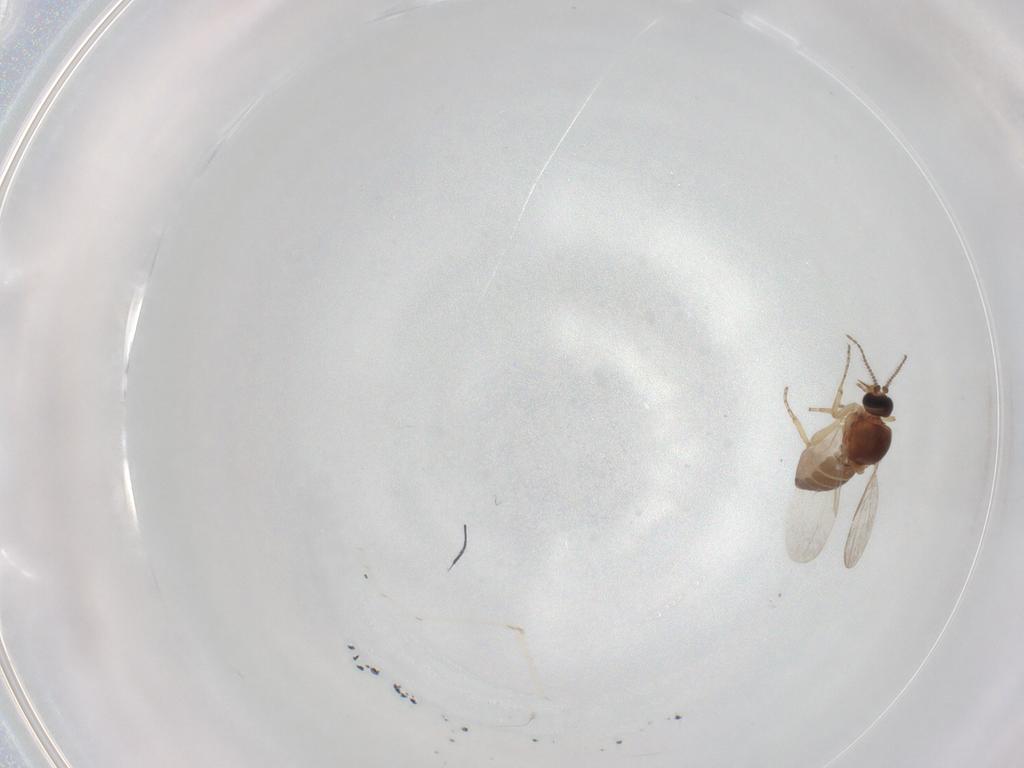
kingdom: Animalia
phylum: Arthropoda
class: Insecta
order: Diptera
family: Ceratopogonidae
